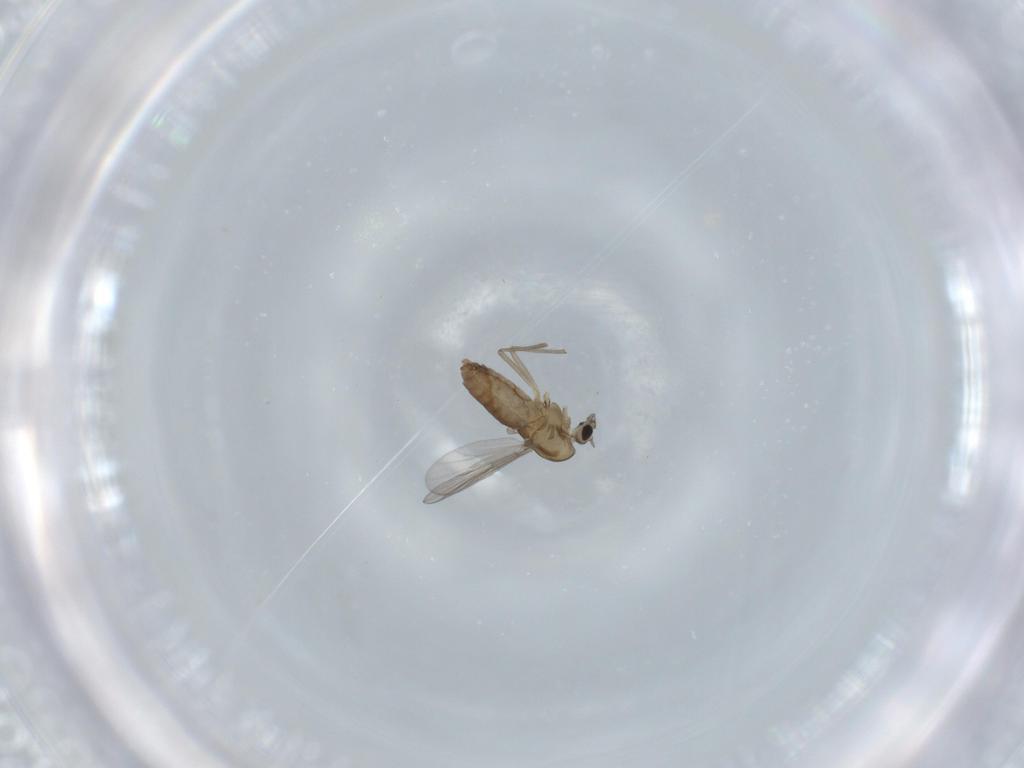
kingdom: Animalia
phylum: Arthropoda
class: Insecta
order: Diptera
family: Chironomidae
